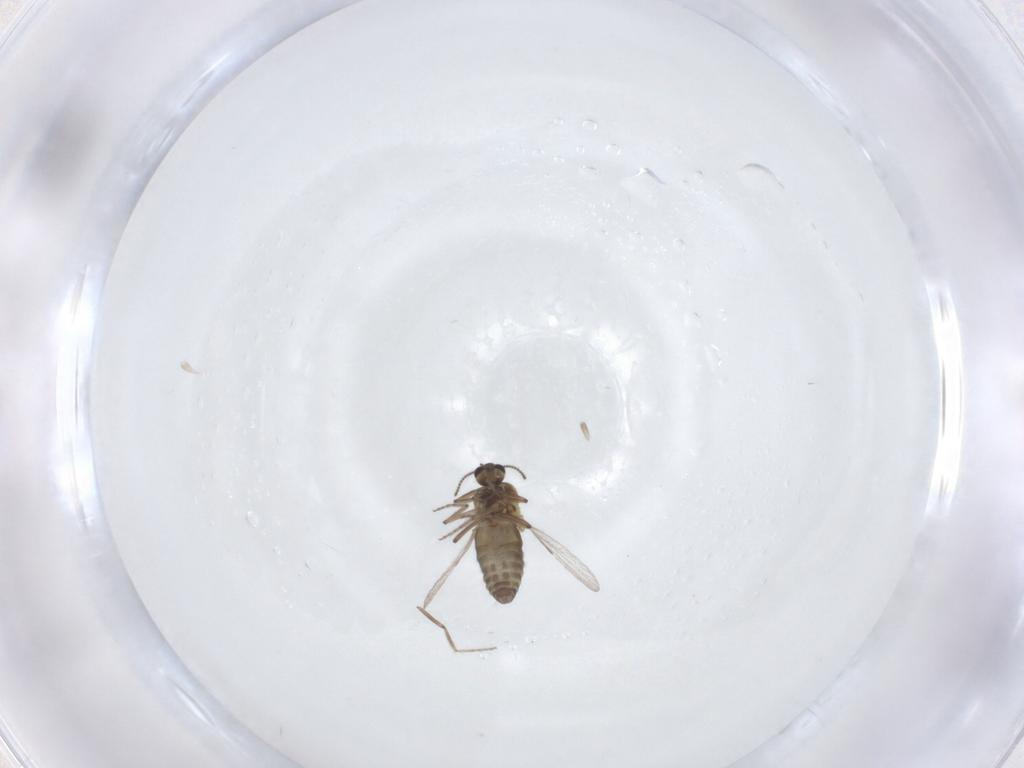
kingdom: Animalia
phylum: Arthropoda
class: Insecta
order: Diptera
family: Ceratopogonidae
